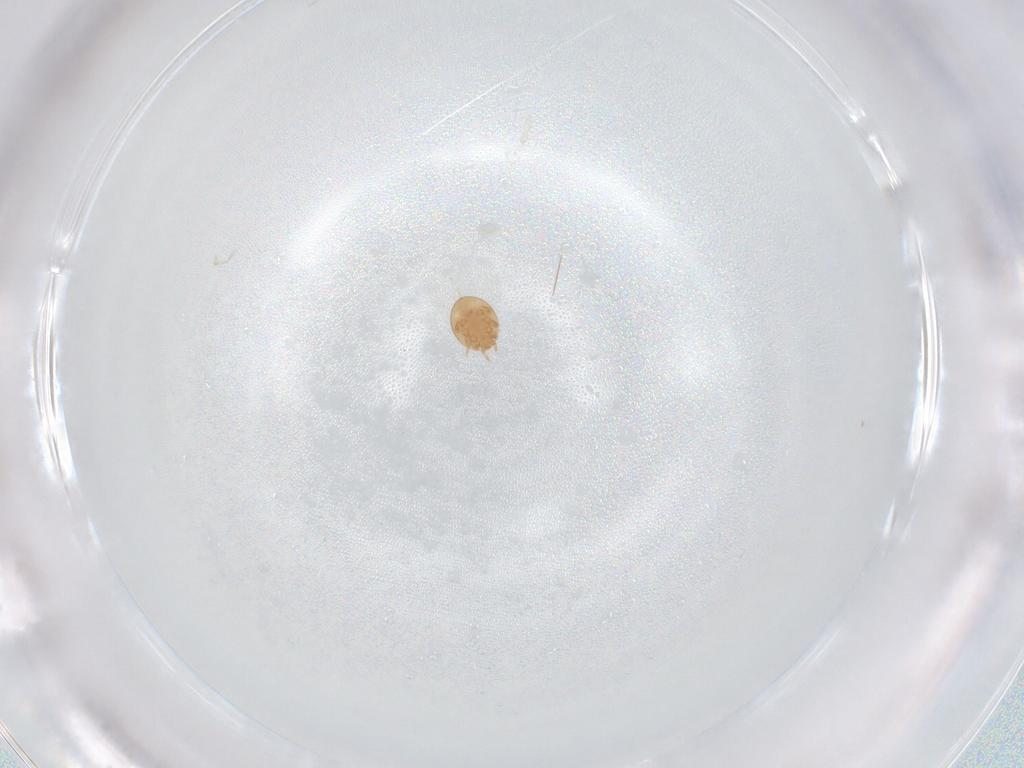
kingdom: Animalia
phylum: Arthropoda
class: Arachnida
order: Mesostigmata
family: Trematuridae
